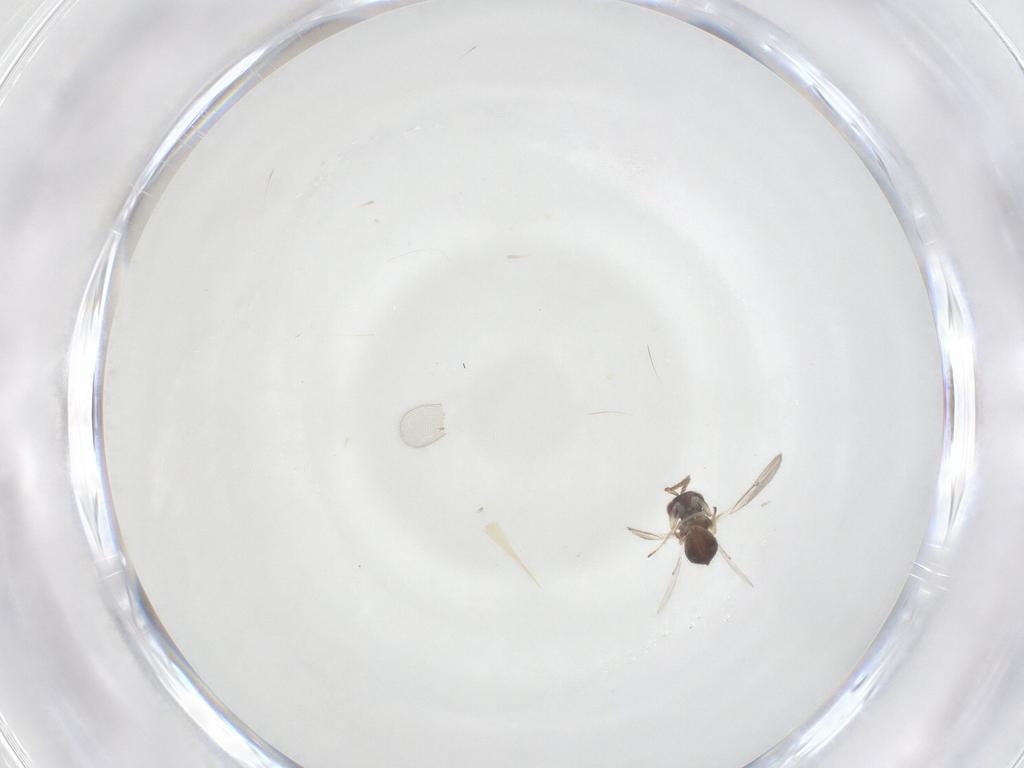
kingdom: Animalia
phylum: Arthropoda
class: Insecta
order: Hymenoptera
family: Eulophidae
